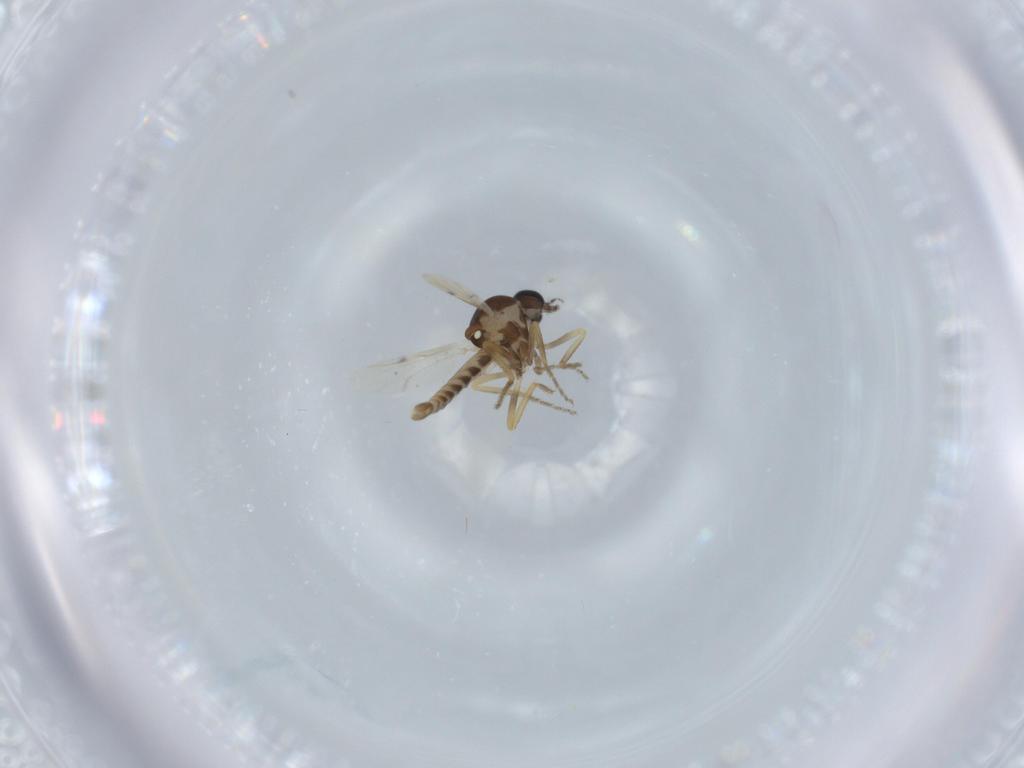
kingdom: Animalia
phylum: Arthropoda
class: Insecta
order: Diptera
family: Ceratopogonidae
